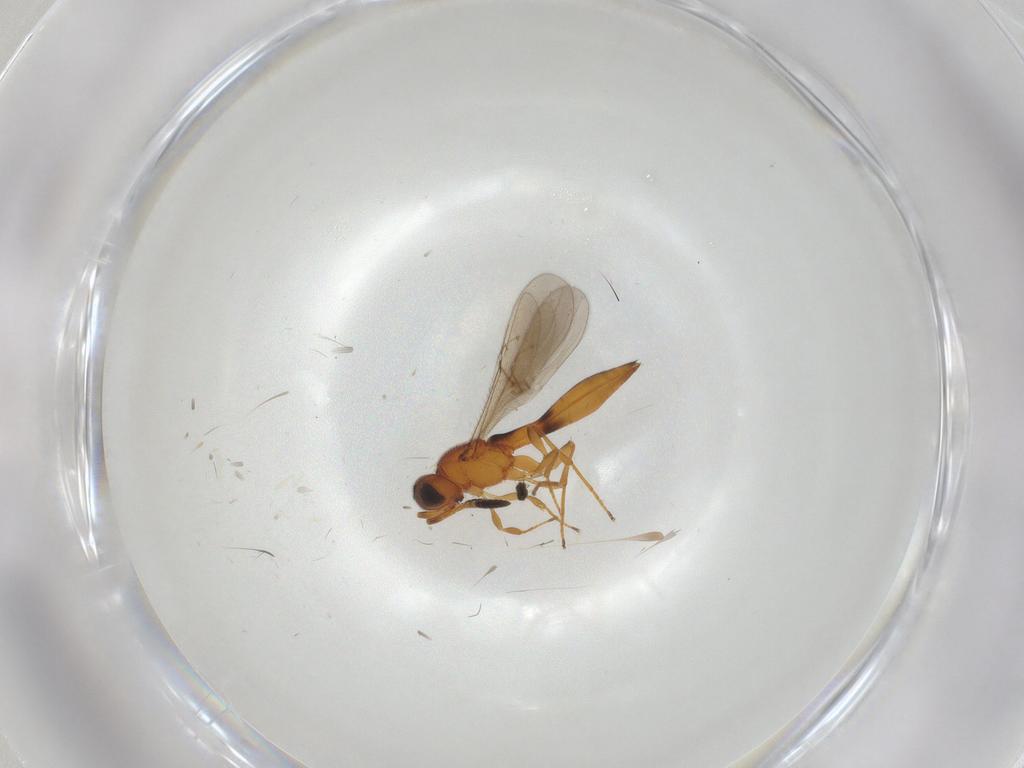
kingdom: Animalia
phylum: Arthropoda
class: Insecta
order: Hymenoptera
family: Scelionidae
